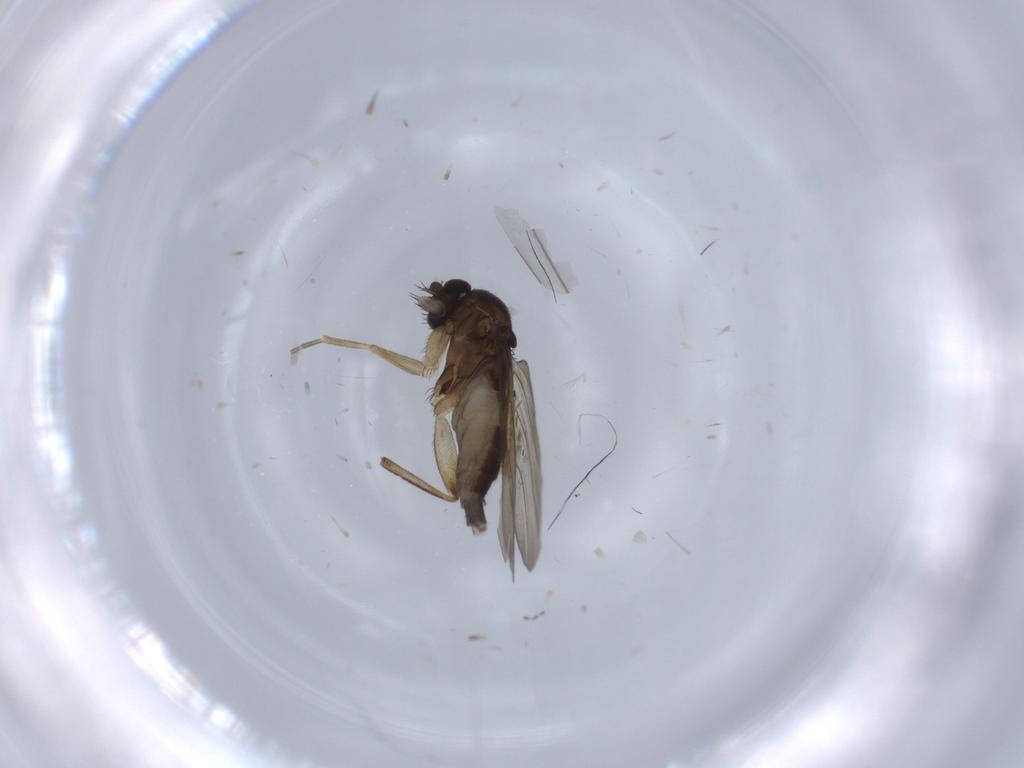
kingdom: Animalia
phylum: Arthropoda
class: Insecta
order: Diptera
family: Phoridae
